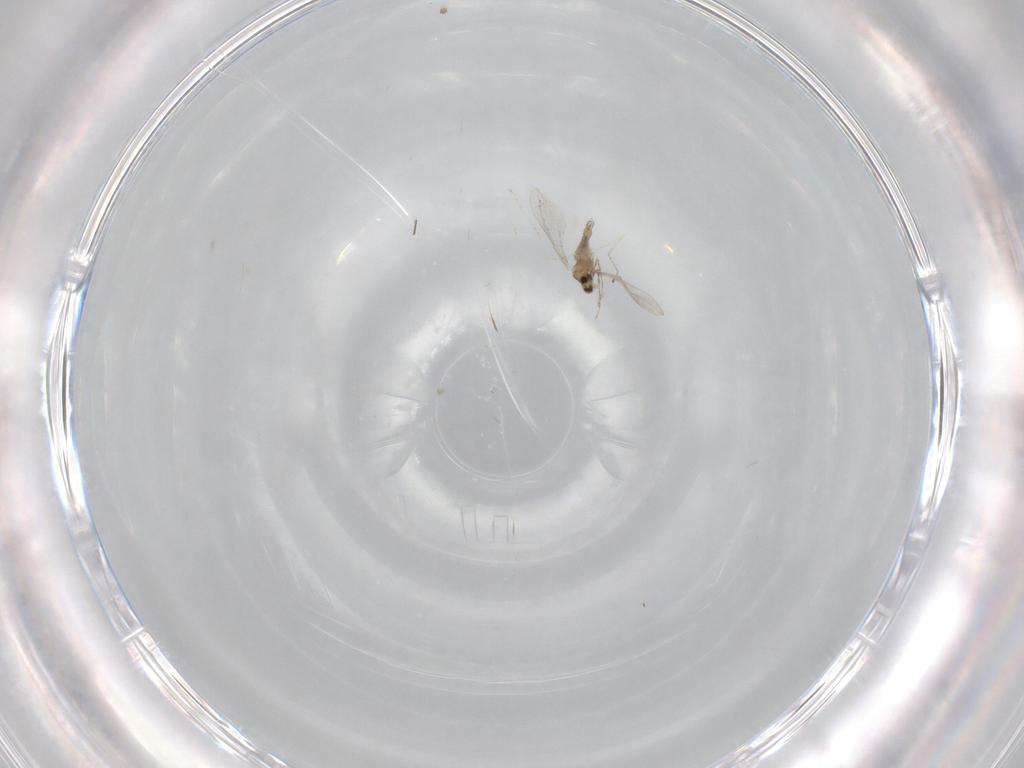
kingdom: Animalia
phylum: Arthropoda
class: Insecta
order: Diptera
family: Cecidomyiidae
